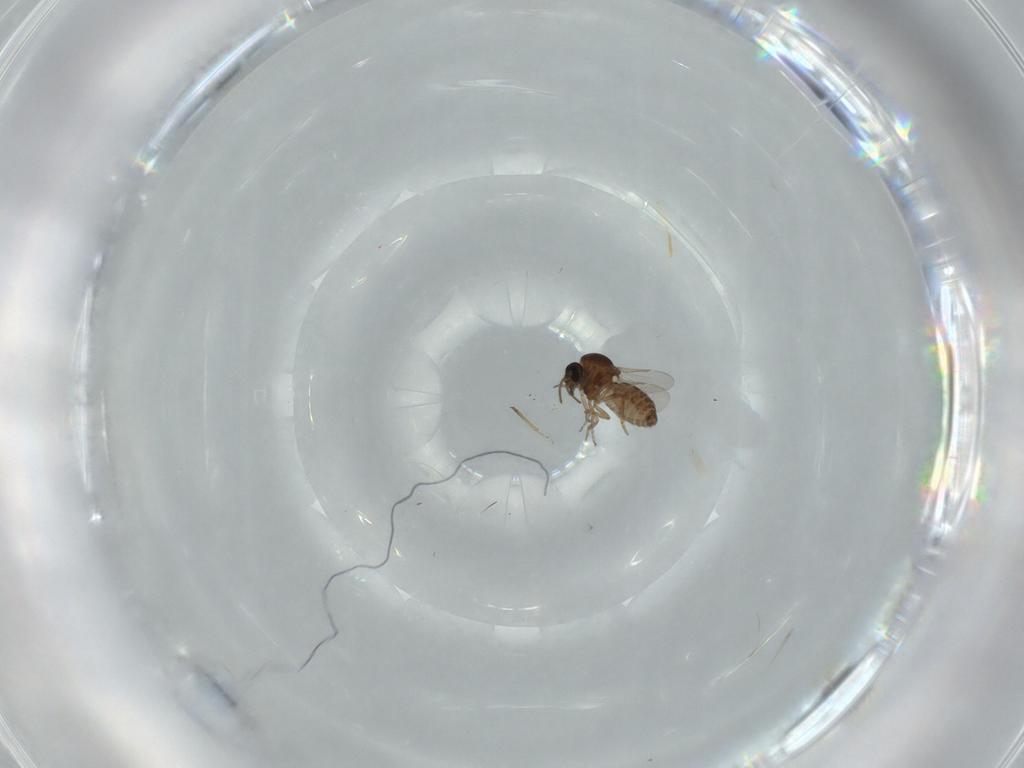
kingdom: Animalia
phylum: Arthropoda
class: Insecta
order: Diptera
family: Ceratopogonidae
